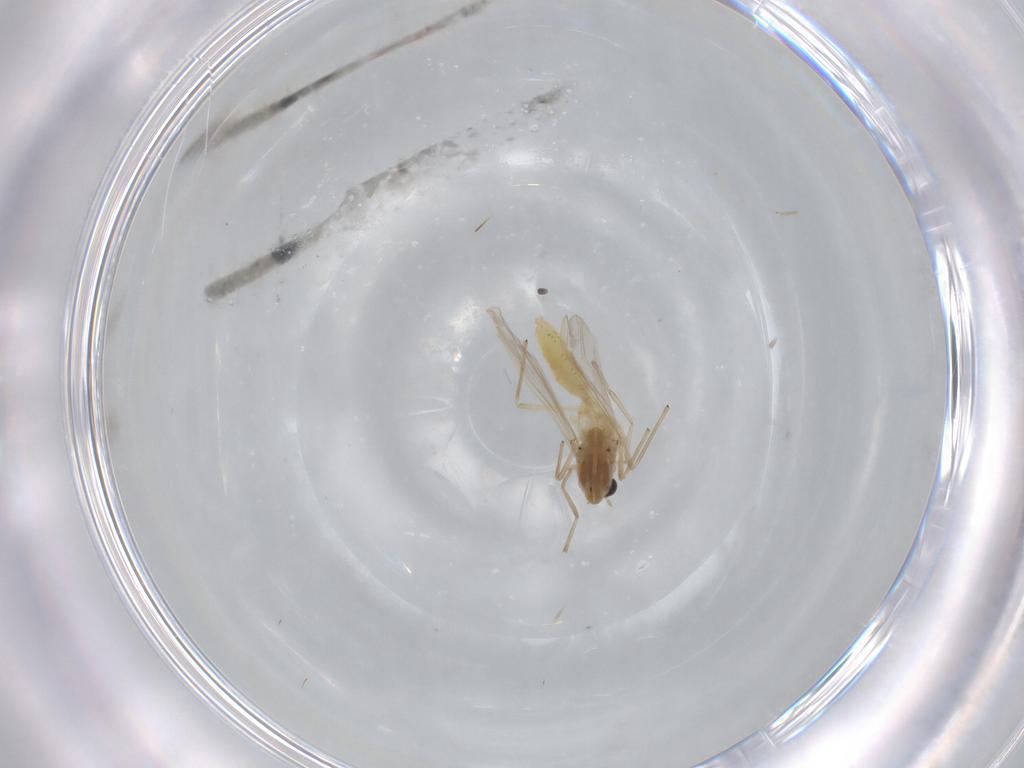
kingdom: Animalia
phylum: Arthropoda
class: Insecta
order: Diptera
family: Chironomidae
